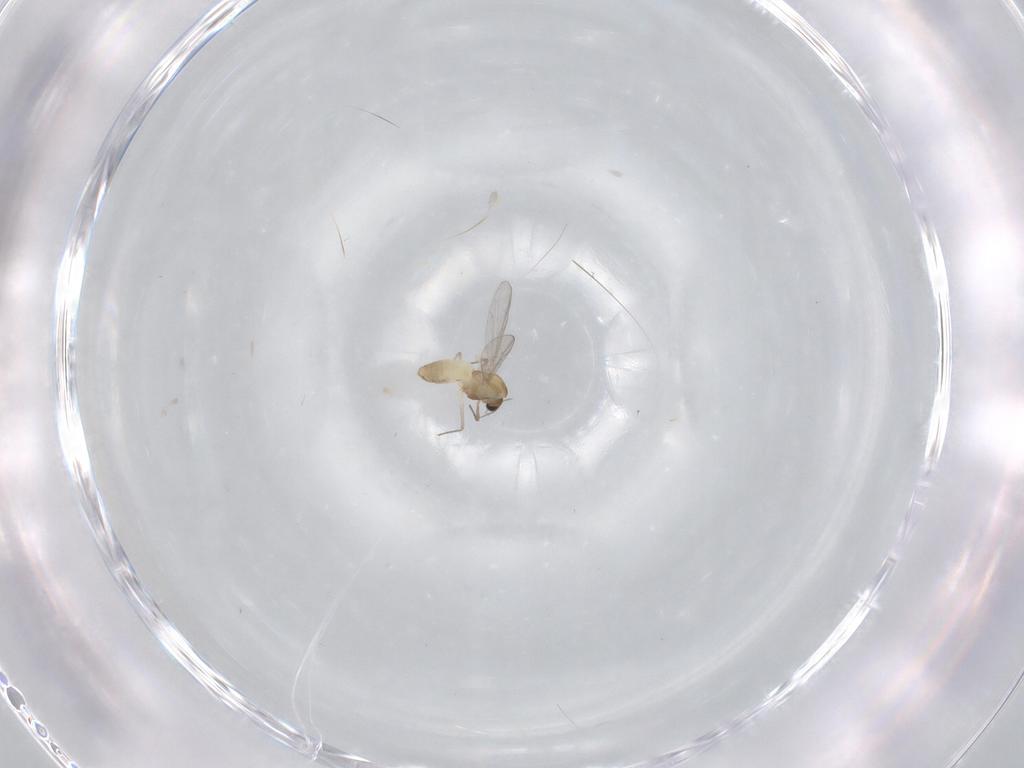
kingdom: Animalia
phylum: Arthropoda
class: Insecta
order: Diptera
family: Chironomidae
